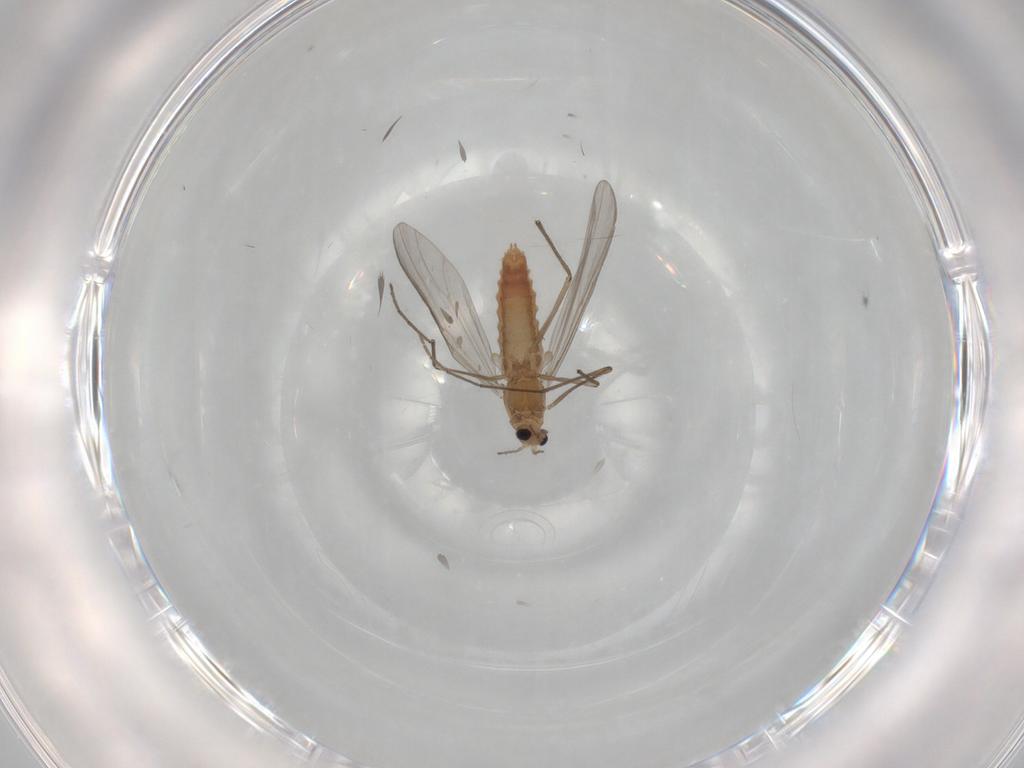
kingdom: Animalia
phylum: Arthropoda
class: Insecta
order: Diptera
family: Chironomidae
